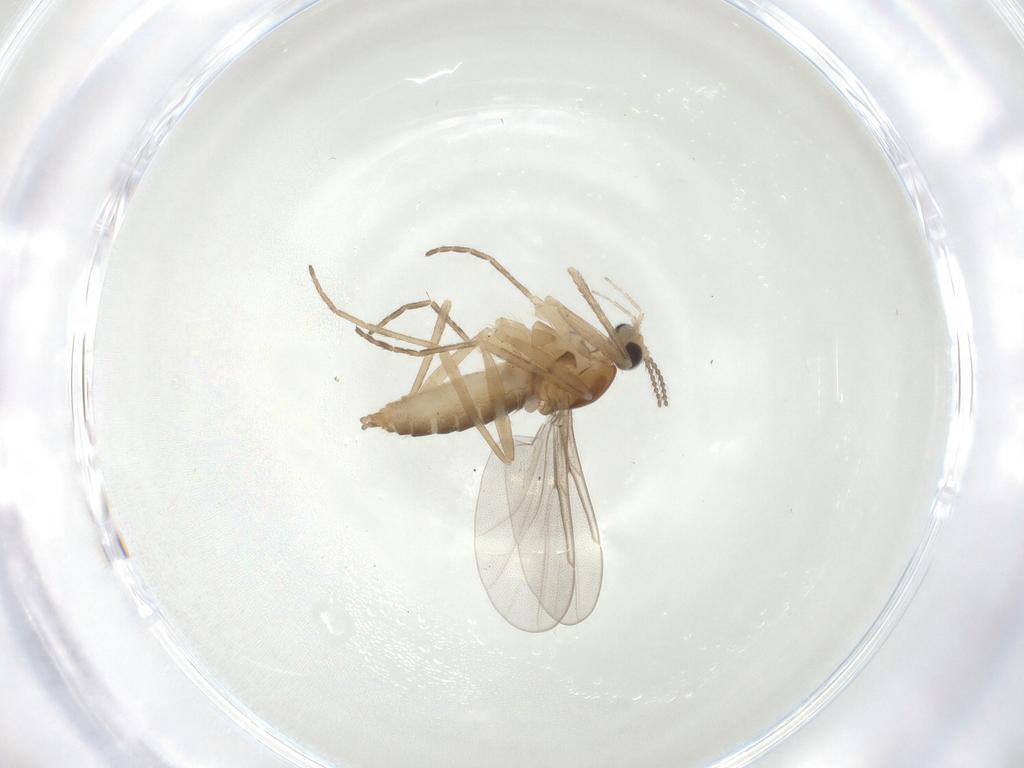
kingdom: Animalia
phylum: Arthropoda
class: Insecta
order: Diptera
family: Cecidomyiidae
